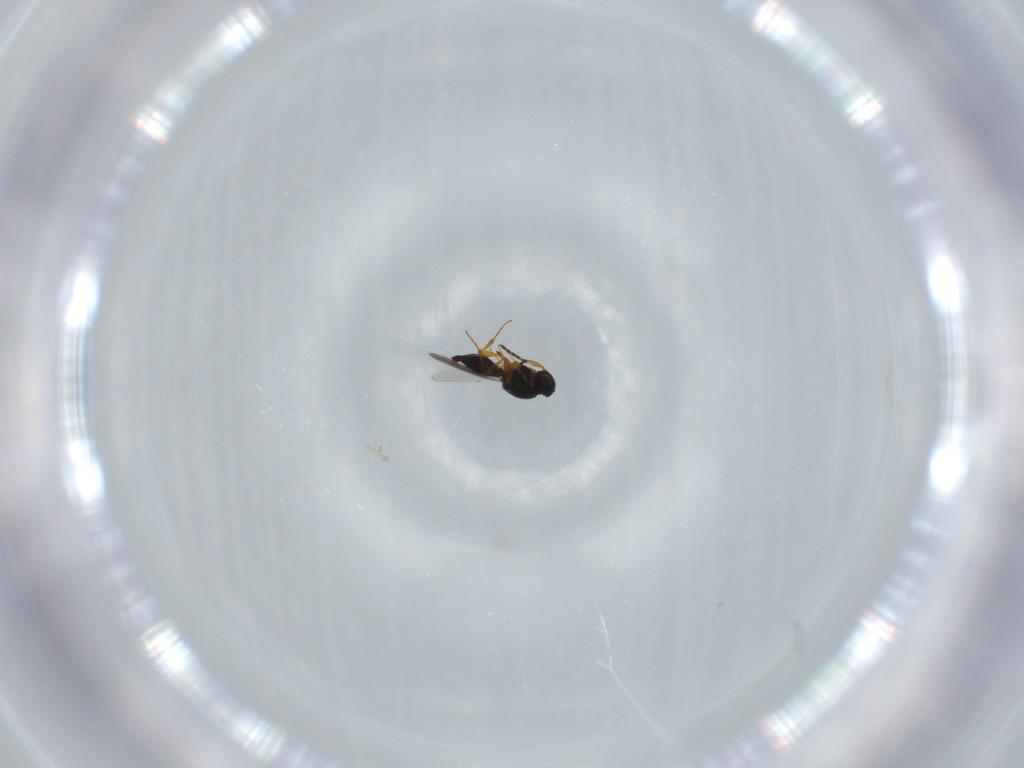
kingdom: Animalia
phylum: Arthropoda
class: Insecta
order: Hymenoptera
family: Platygastridae
